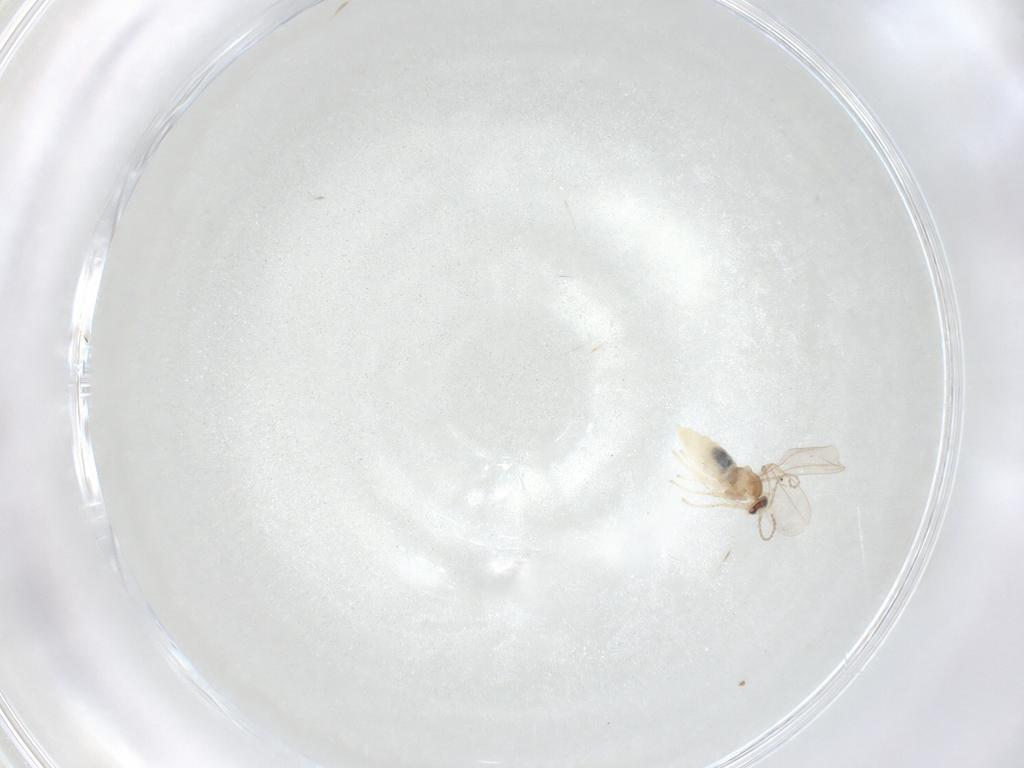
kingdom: Animalia
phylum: Arthropoda
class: Insecta
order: Diptera
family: Cecidomyiidae
